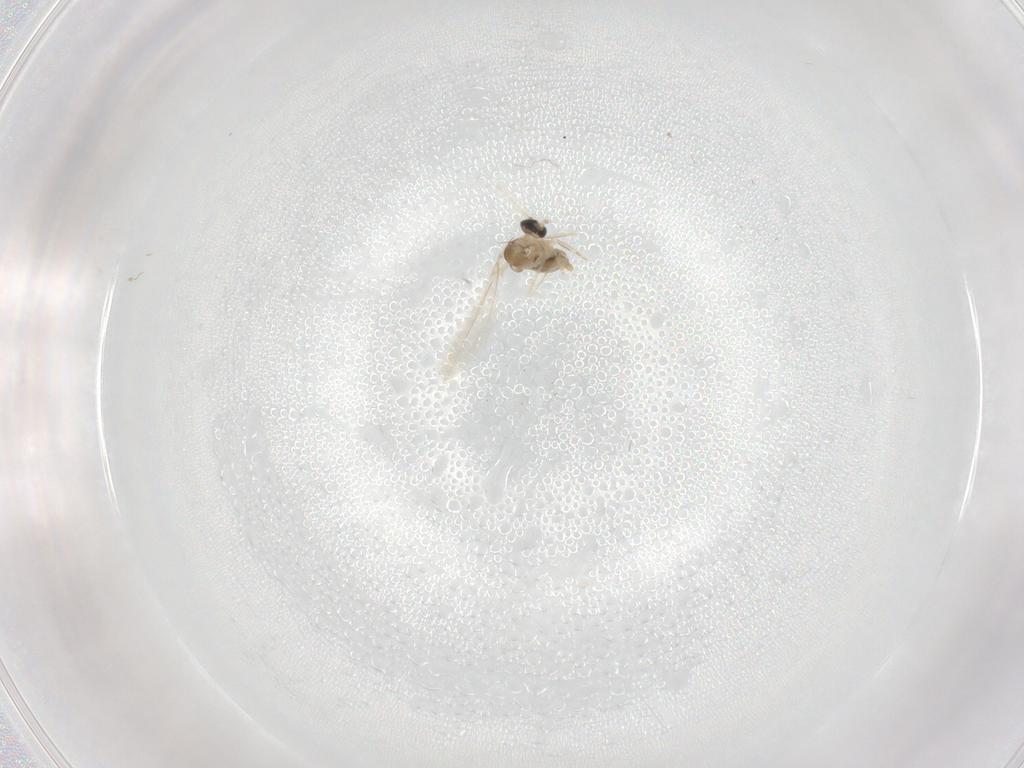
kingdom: Animalia
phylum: Arthropoda
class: Insecta
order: Diptera
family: Cecidomyiidae
